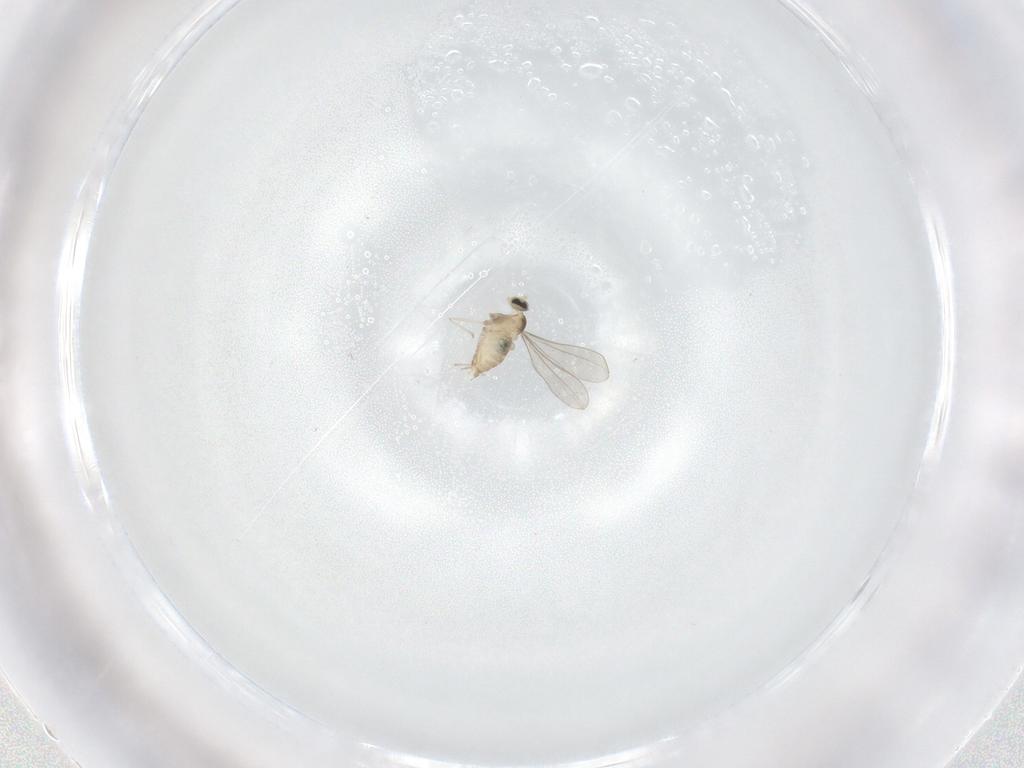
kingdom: Animalia
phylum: Arthropoda
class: Insecta
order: Diptera
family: Cecidomyiidae
